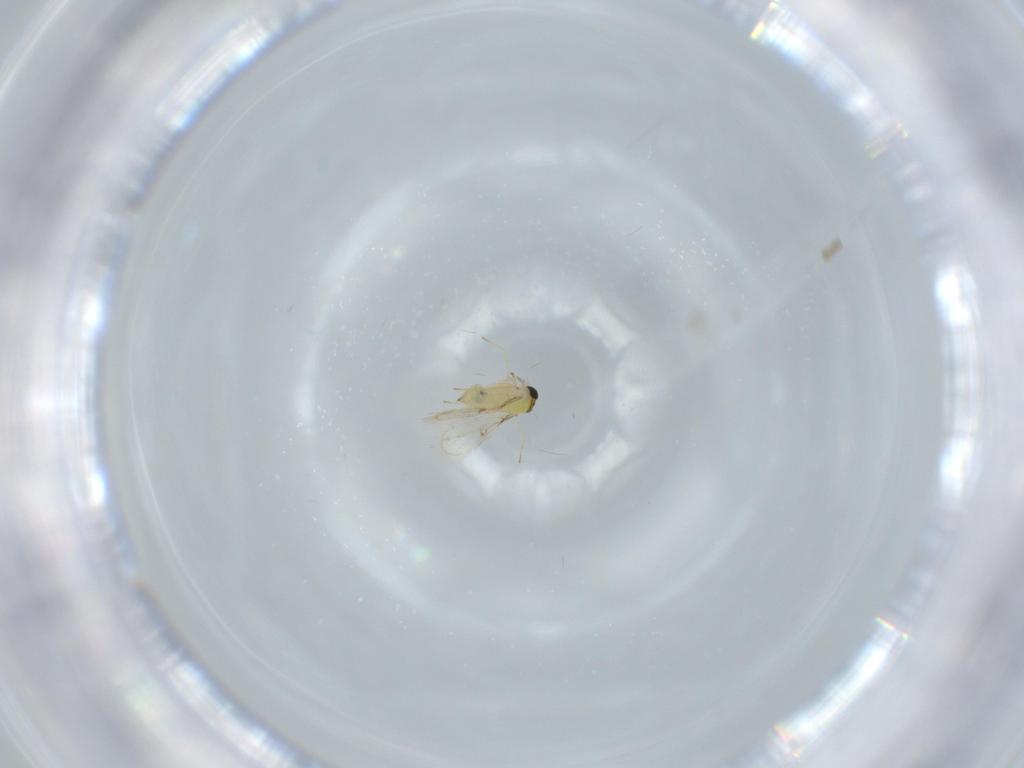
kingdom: Animalia
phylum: Arthropoda
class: Insecta
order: Hymenoptera
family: Trichogrammatidae
